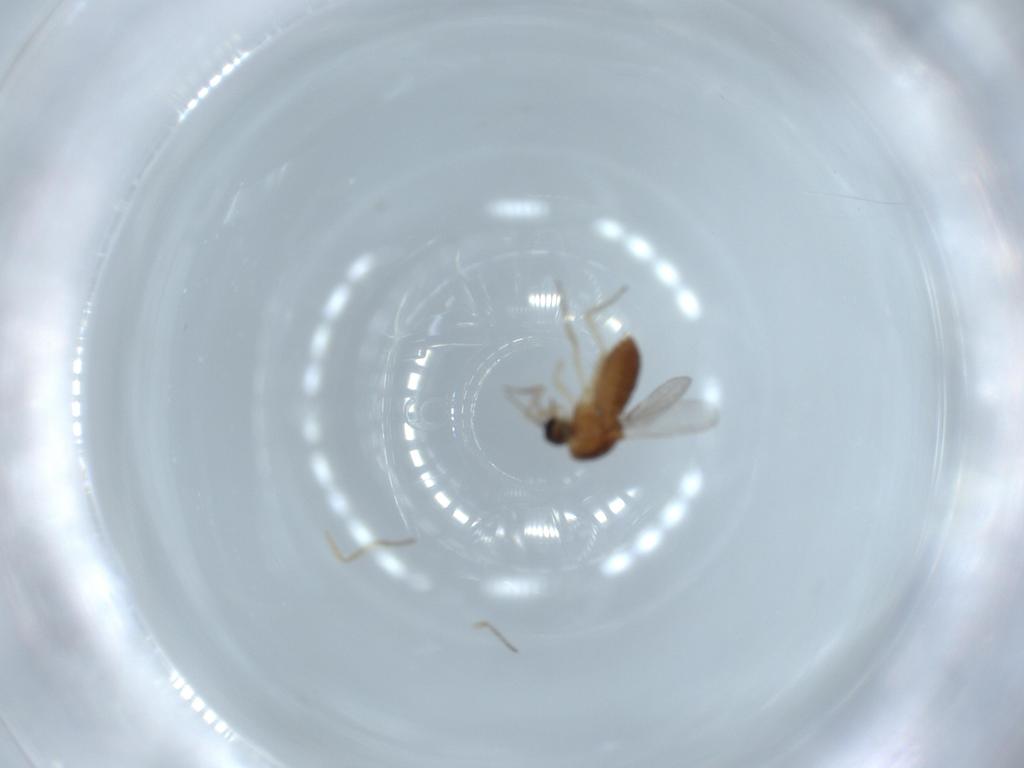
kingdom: Animalia
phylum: Arthropoda
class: Insecta
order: Diptera
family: Ceratopogonidae
